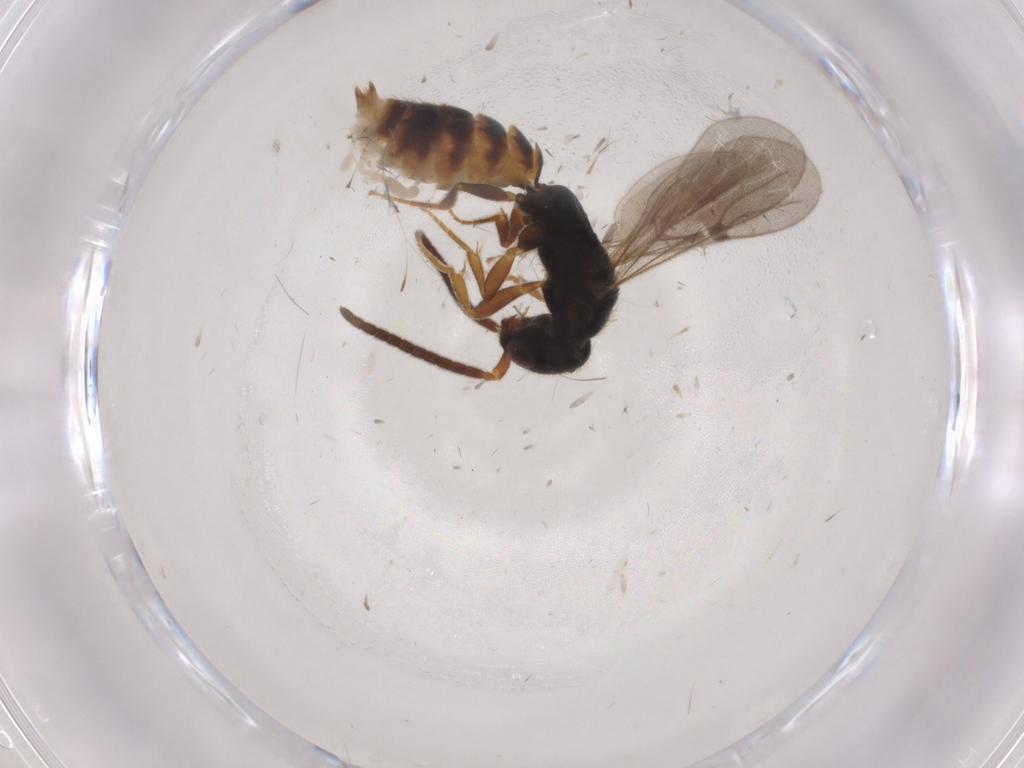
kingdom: Animalia
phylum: Arthropoda
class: Insecta
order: Hymenoptera
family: Bethylidae
